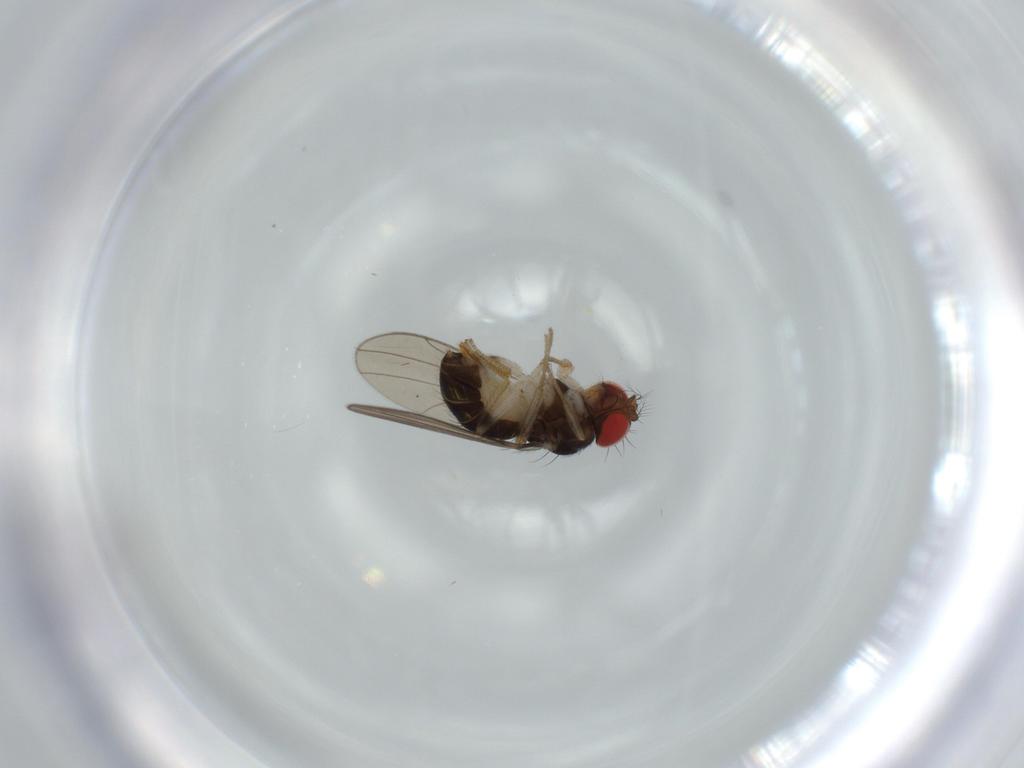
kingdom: Animalia
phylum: Arthropoda
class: Insecta
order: Diptera
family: Drosophilidae
